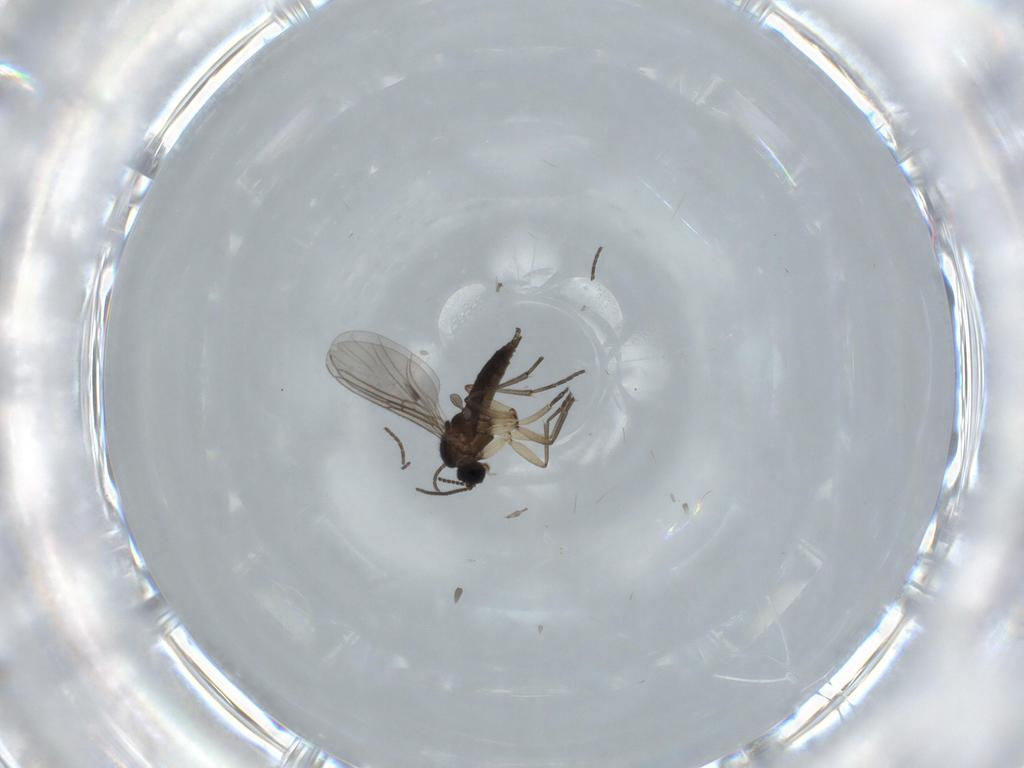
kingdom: Animalia
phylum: Arthropoda
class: Insecta
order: Diptera
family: Sciaridae
